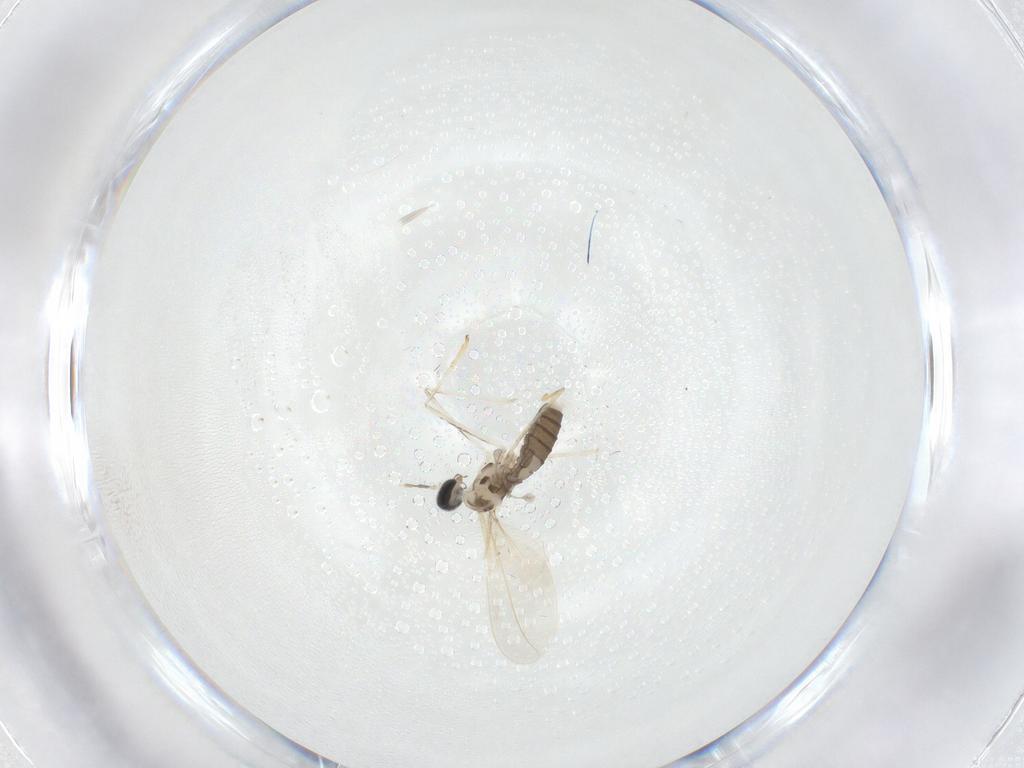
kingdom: Animalia
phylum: Arthropoda
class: Insecta
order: Diptera
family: Cecidomyiidae
